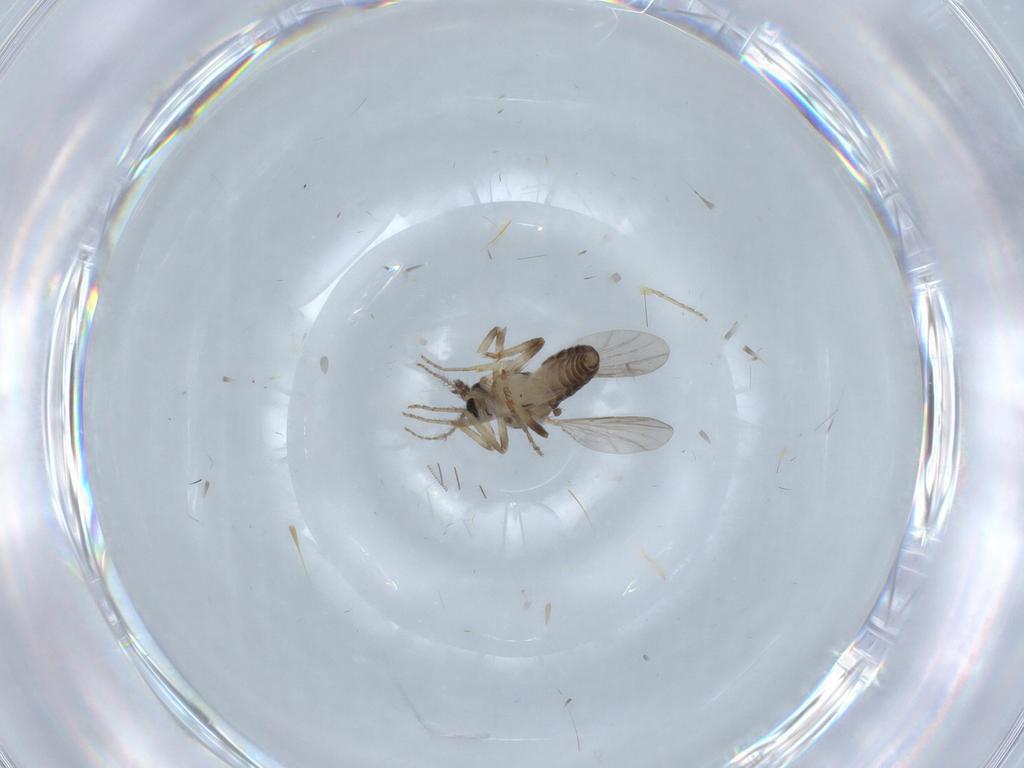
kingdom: Animalia
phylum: Arthropoda
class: Insecta
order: Diptera
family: Ceratopogonidae
